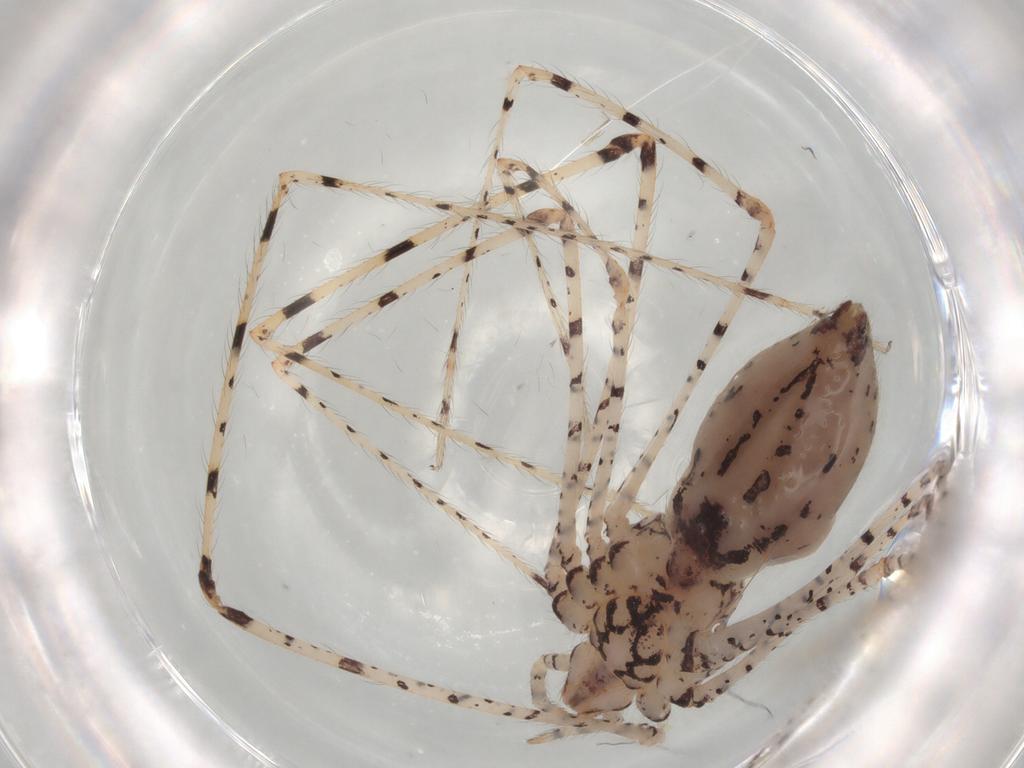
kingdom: Animalia
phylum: Arthropoda
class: Arachnida
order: Araneae
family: Scytodidae
